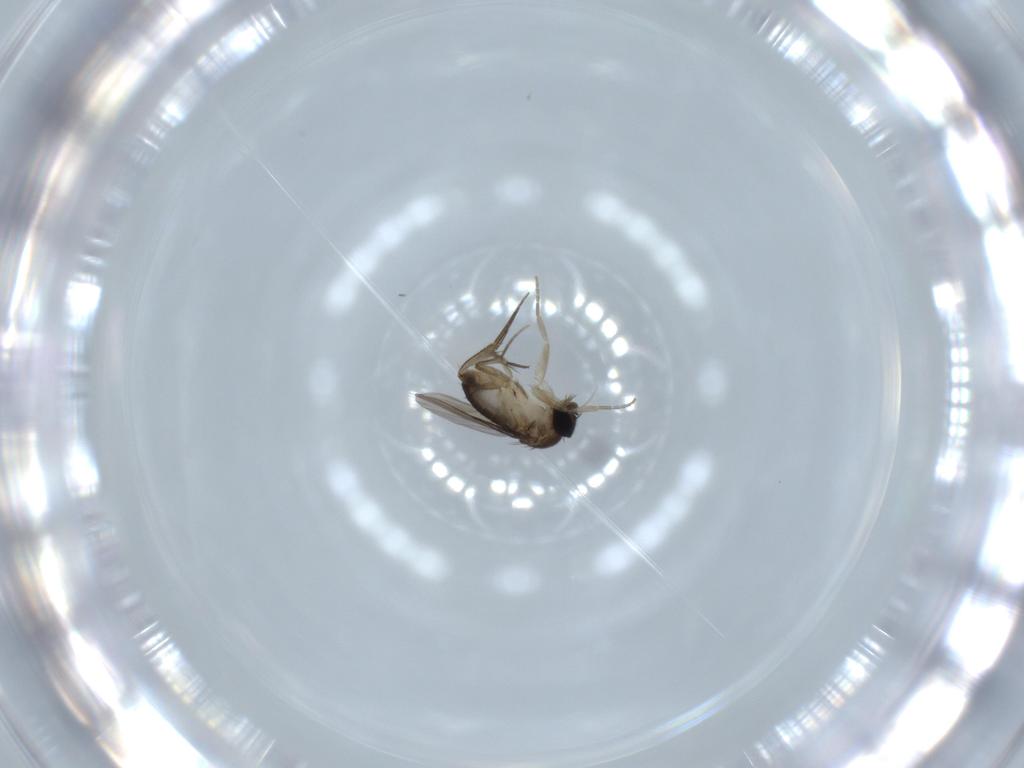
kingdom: Animalia
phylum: Arthropoda
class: Insecta
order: Diptera
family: Phoridae
